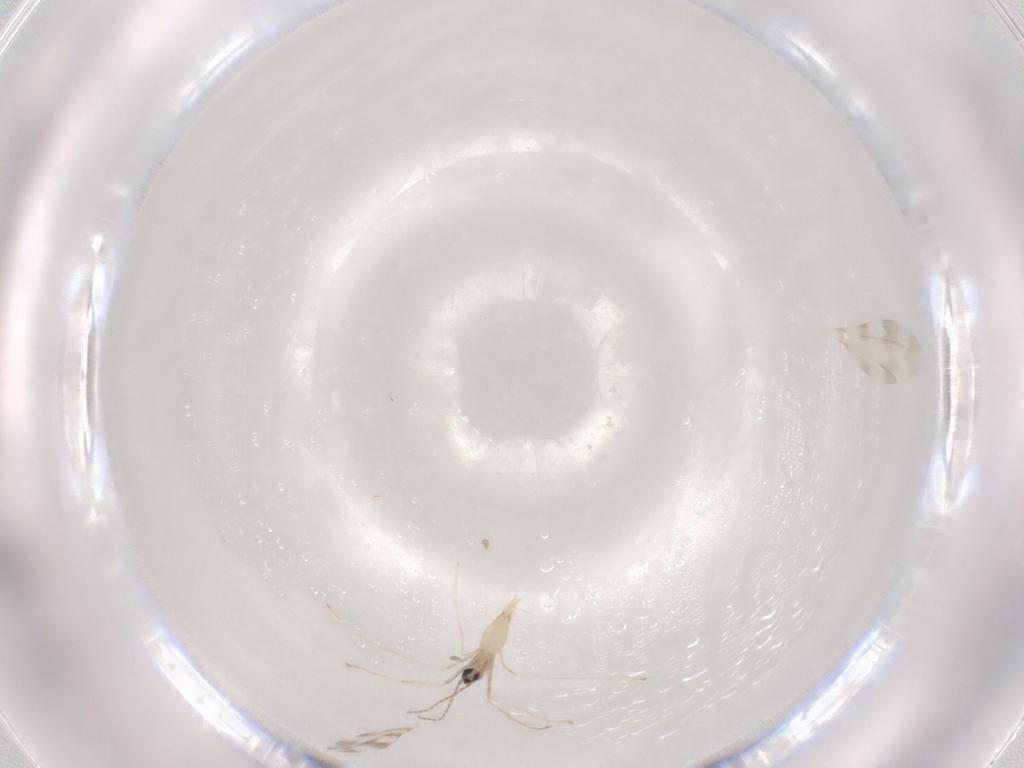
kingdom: Animalia
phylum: Arthropoda
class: Insecta
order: Diptera
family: Cecidomyiidae
